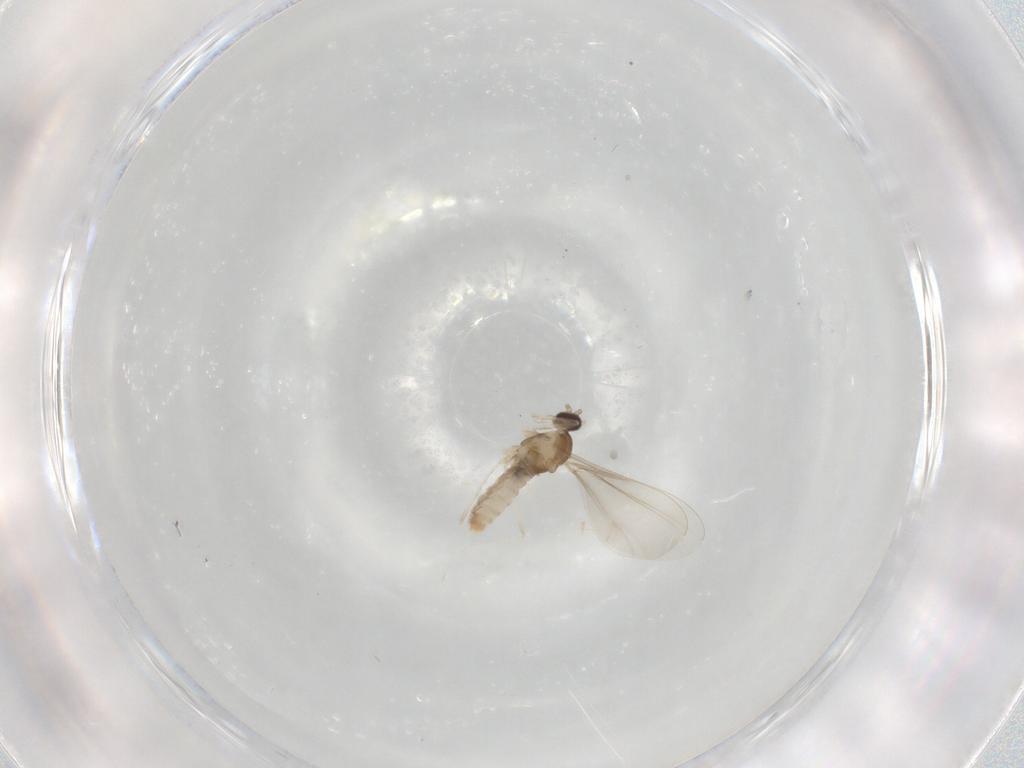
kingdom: Animalia
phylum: Arthropoda
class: Insecta
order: Diptera
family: Cecidomyiidae
